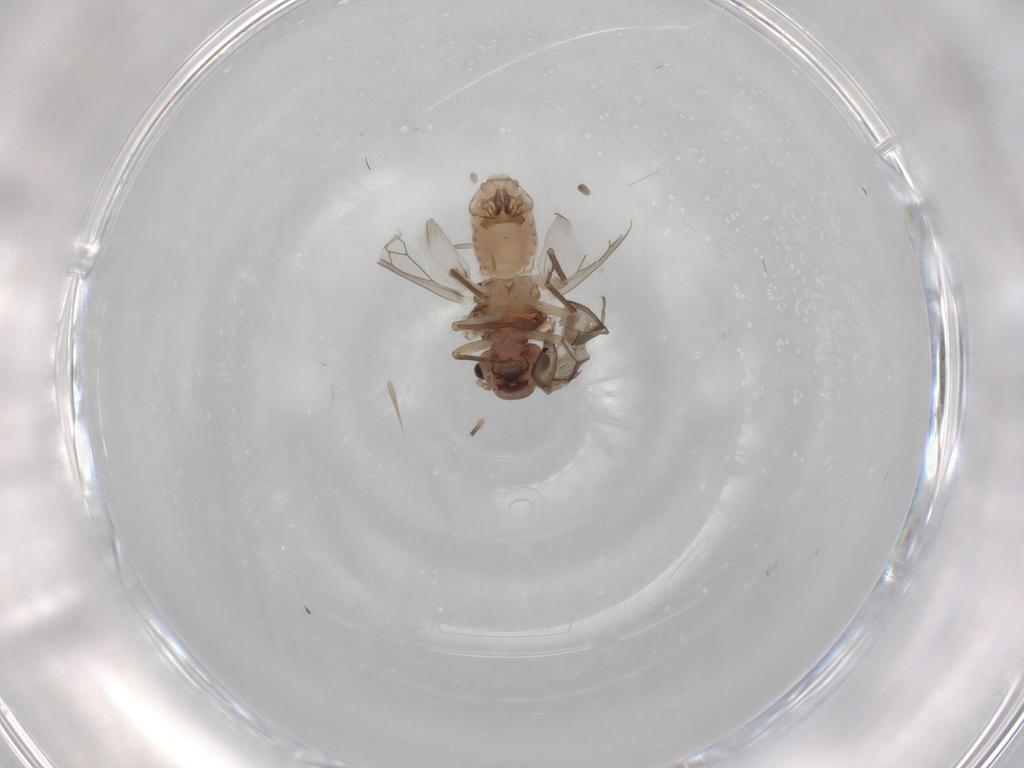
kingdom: Animalia
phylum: Arthropoda
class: Insecta
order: Psocodea
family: Peripsocidae
